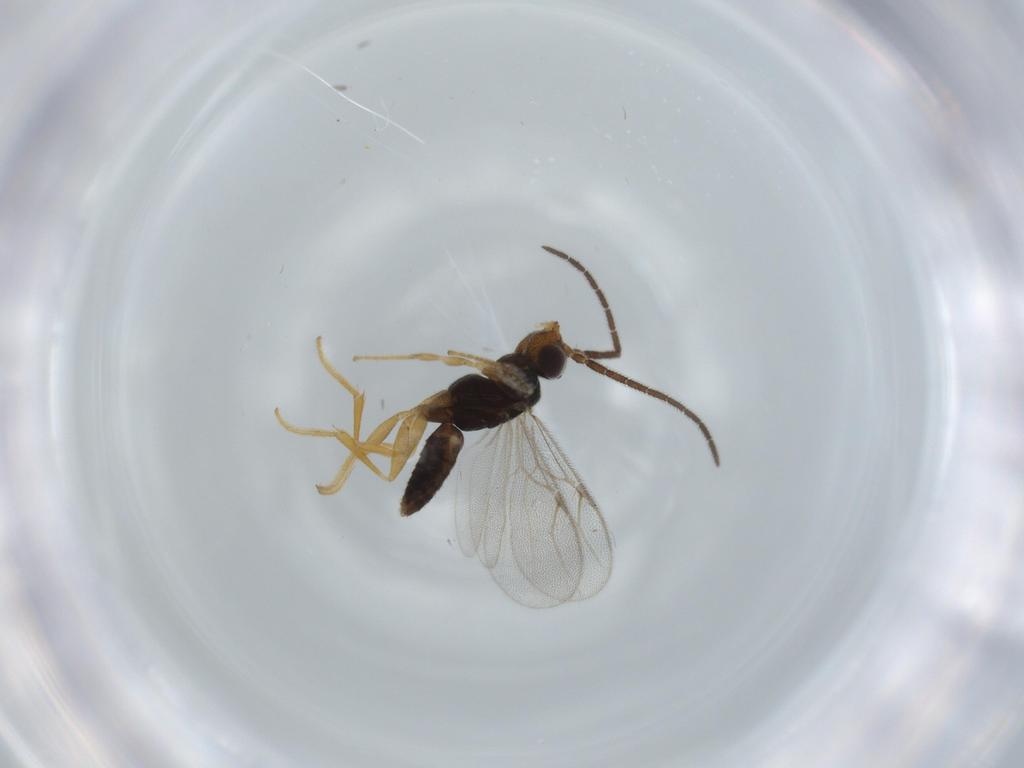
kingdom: Animalia
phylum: Arthropoda
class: Insecta
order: Hymenoptera
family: Dryinidae
